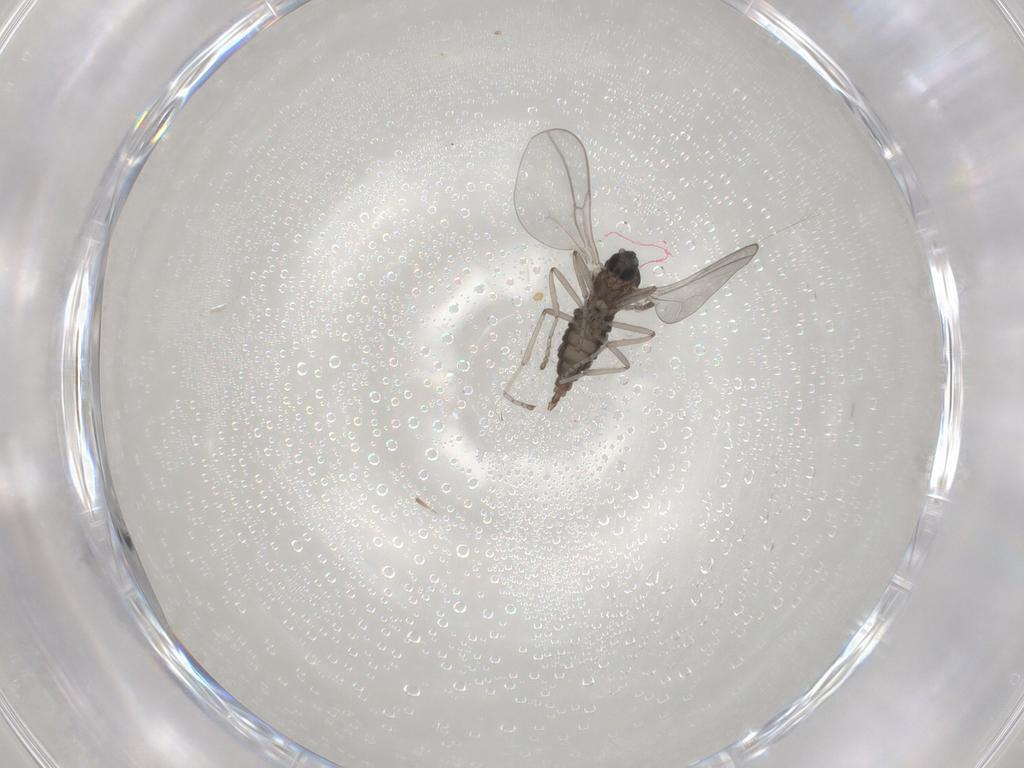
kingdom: Animalia
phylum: Arthropoda
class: Insecta
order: Diptera
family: Cecidomyiidae
